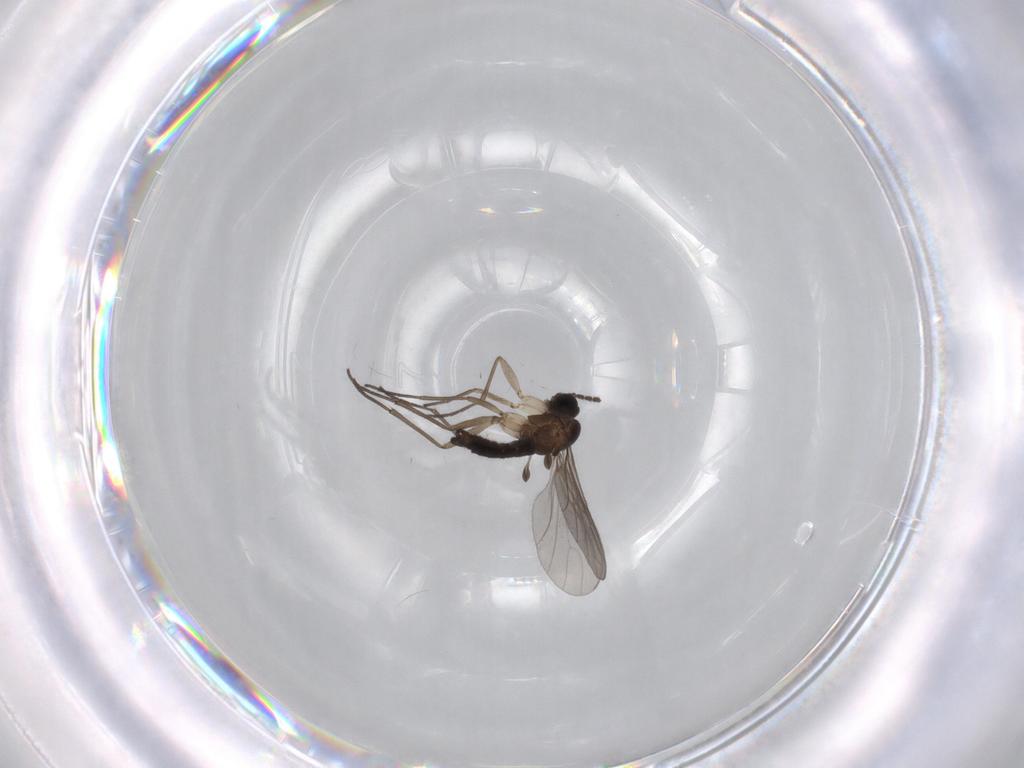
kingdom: Animalia
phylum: Arthropoda
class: Insecta
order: Diptera
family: Sciaridae
